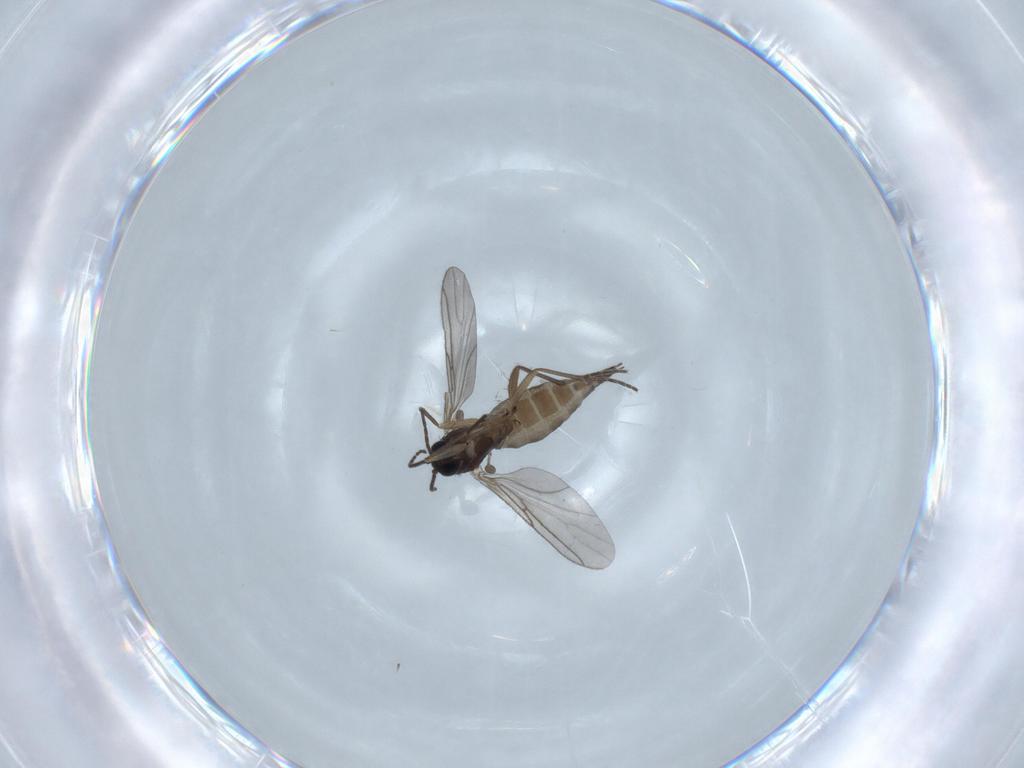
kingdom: Animalia
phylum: Arthropoda
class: Insecta
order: Diptera
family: Sciaridae
